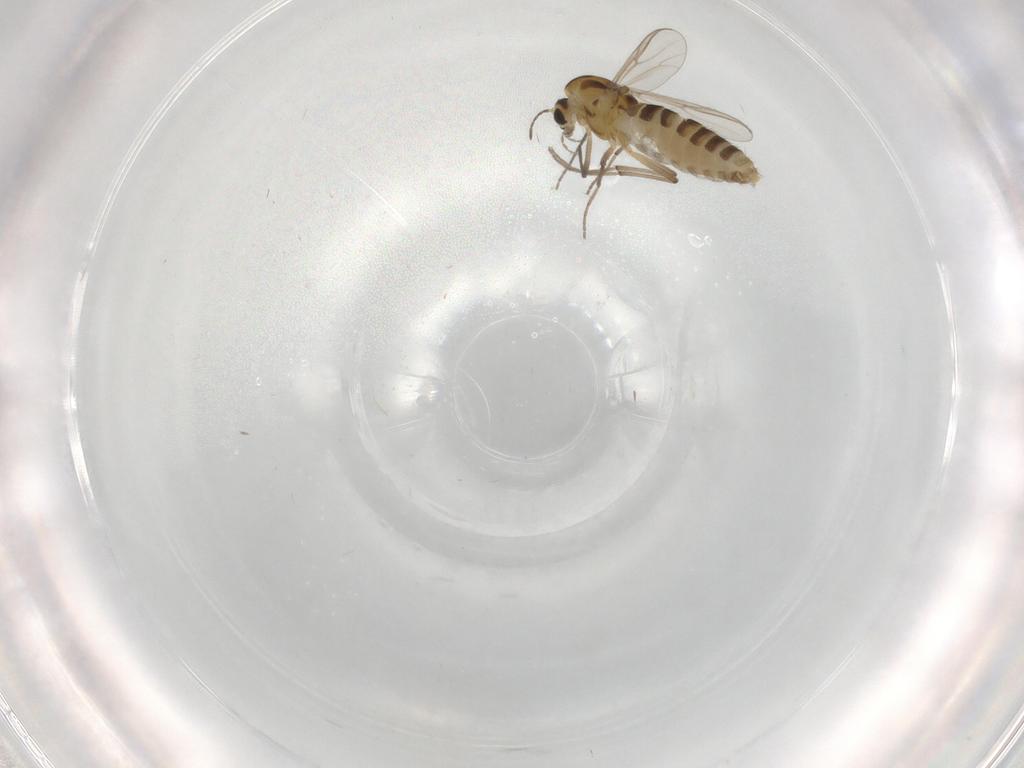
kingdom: Animalia
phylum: Arthropoda
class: Insecta
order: Diptera
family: Chironomidae
